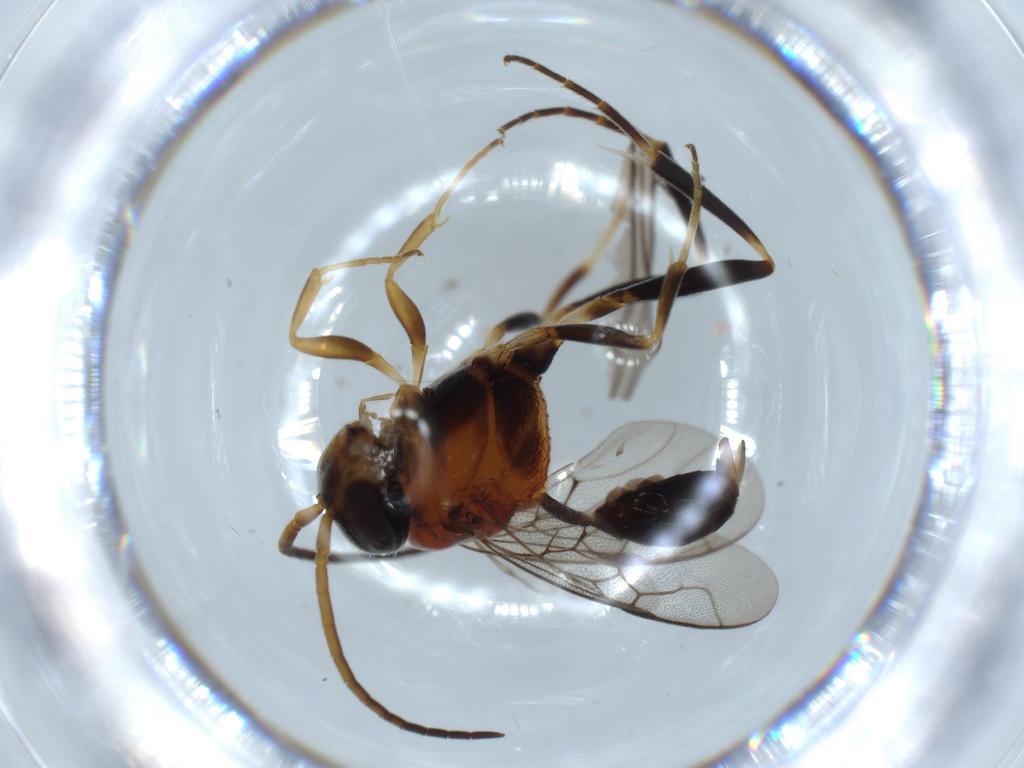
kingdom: Animalia
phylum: Arthropoda
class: Insecta
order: Hymenoptera
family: Evaniidae
